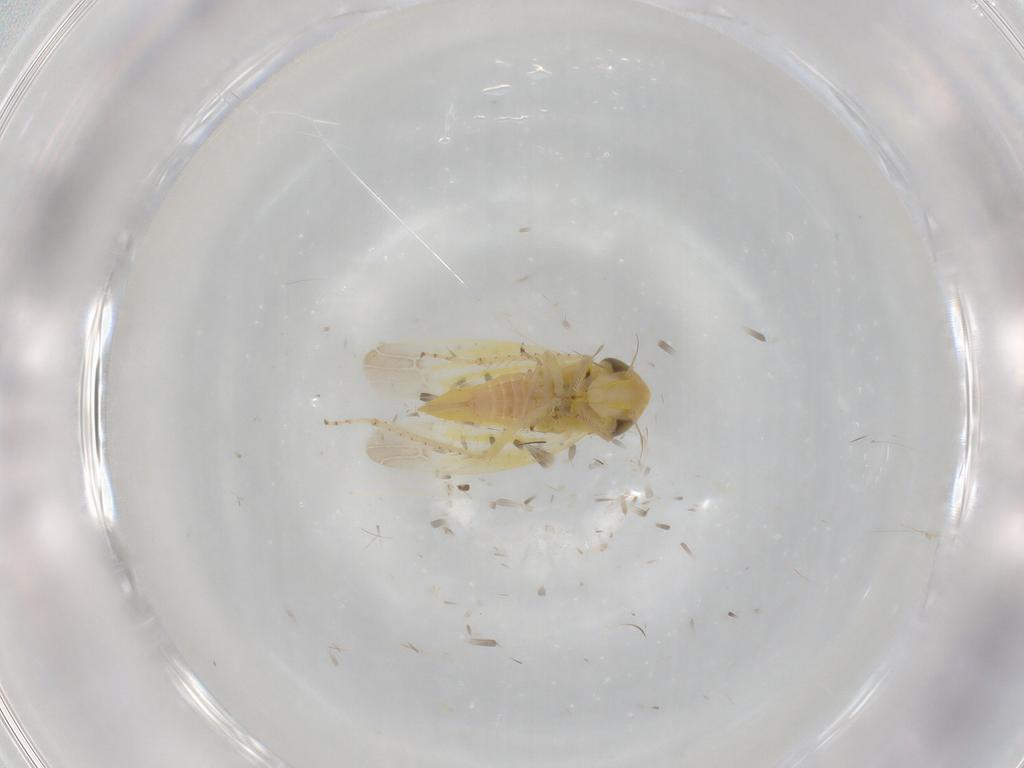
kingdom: Animalia
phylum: Arthropoda
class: Insecta
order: Hemiptera
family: Cicadellidae
